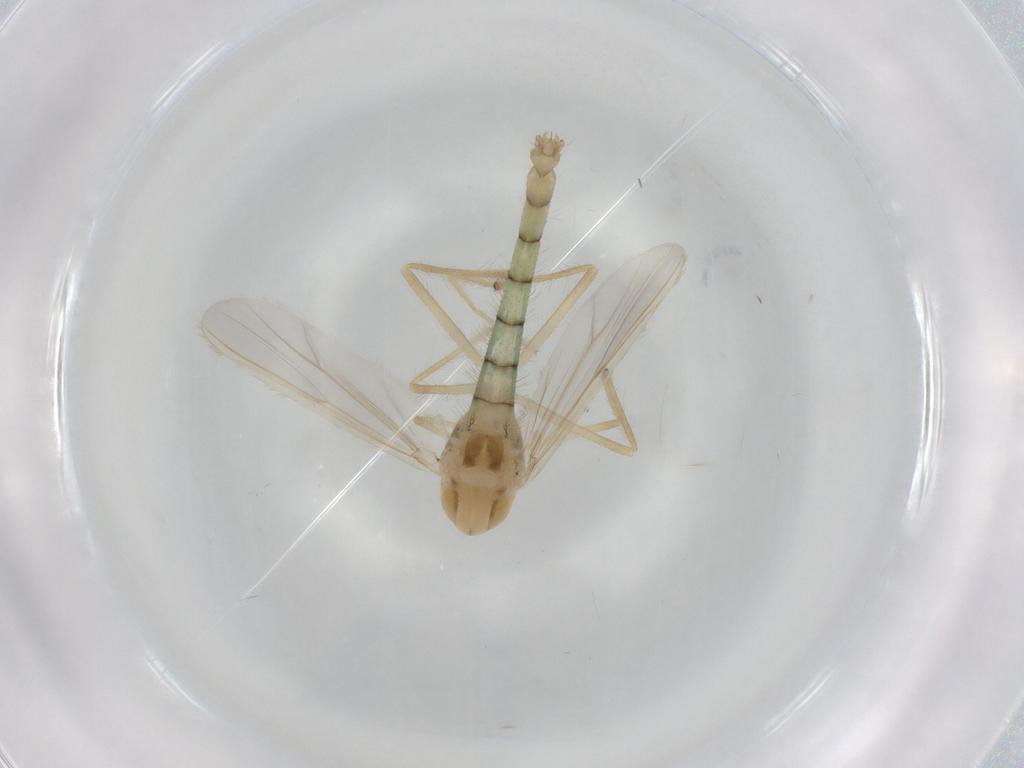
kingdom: Animalia
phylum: Arthropoda
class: Insecta
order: Diptera
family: Chironomidae
